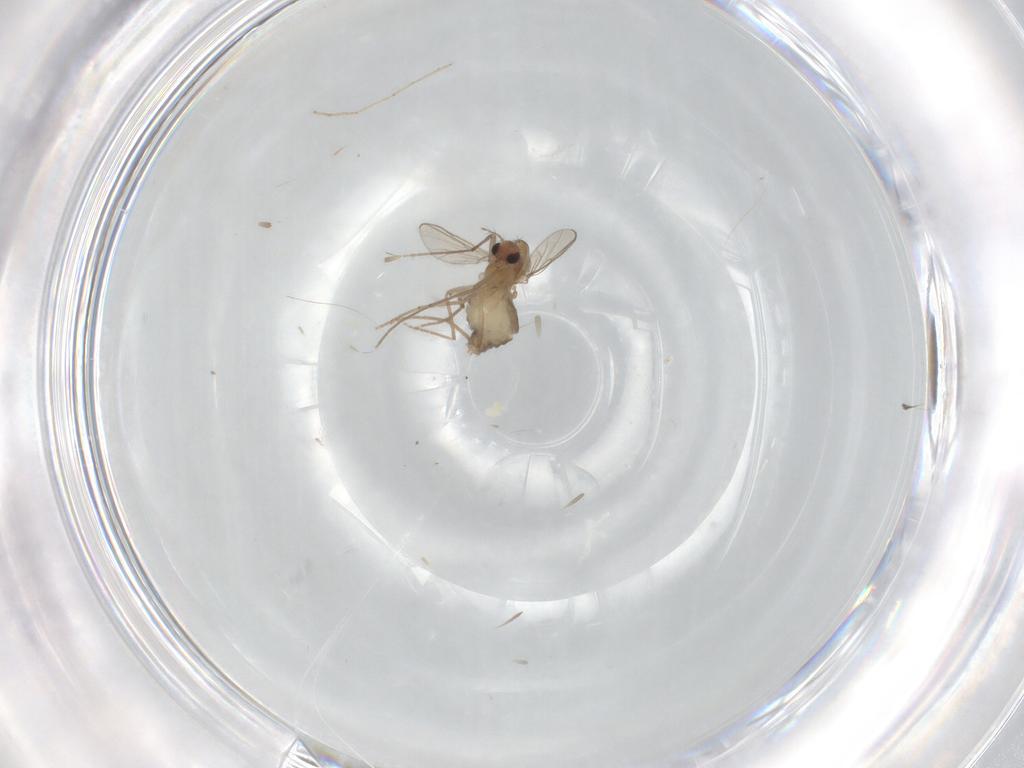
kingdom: Animalia
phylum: Arthropoda
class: Insecta
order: Diptera
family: Chironomidae
